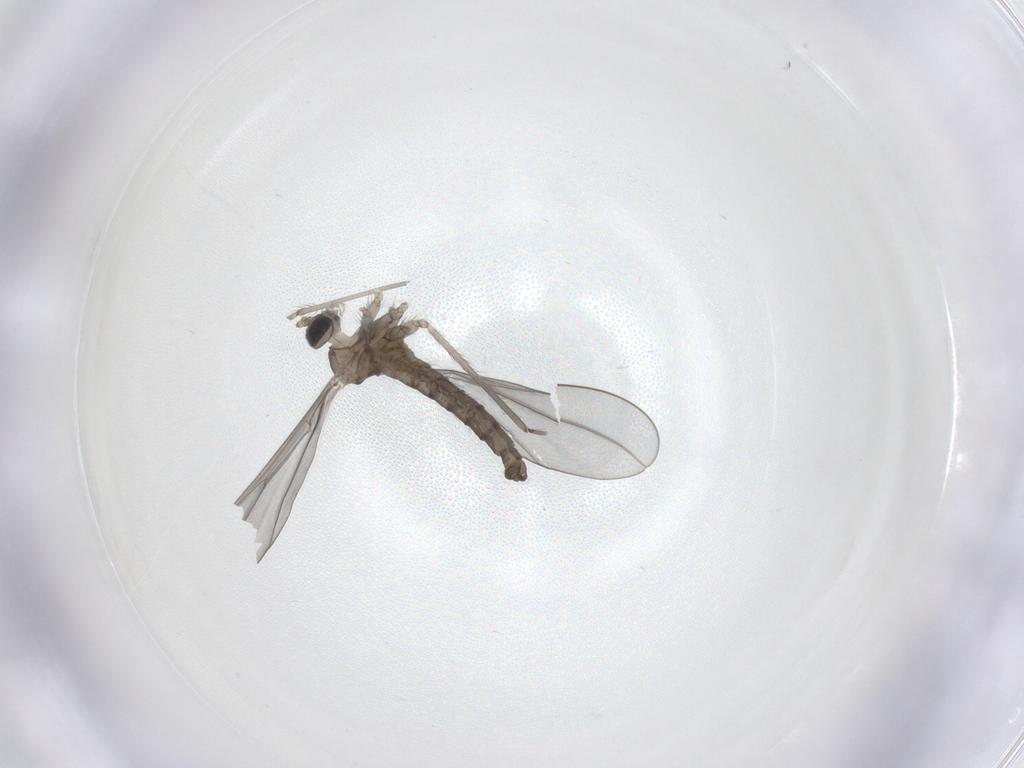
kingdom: Animalia
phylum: Arthropoda
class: Insecta
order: Diptera
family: Cecidomyiidae
